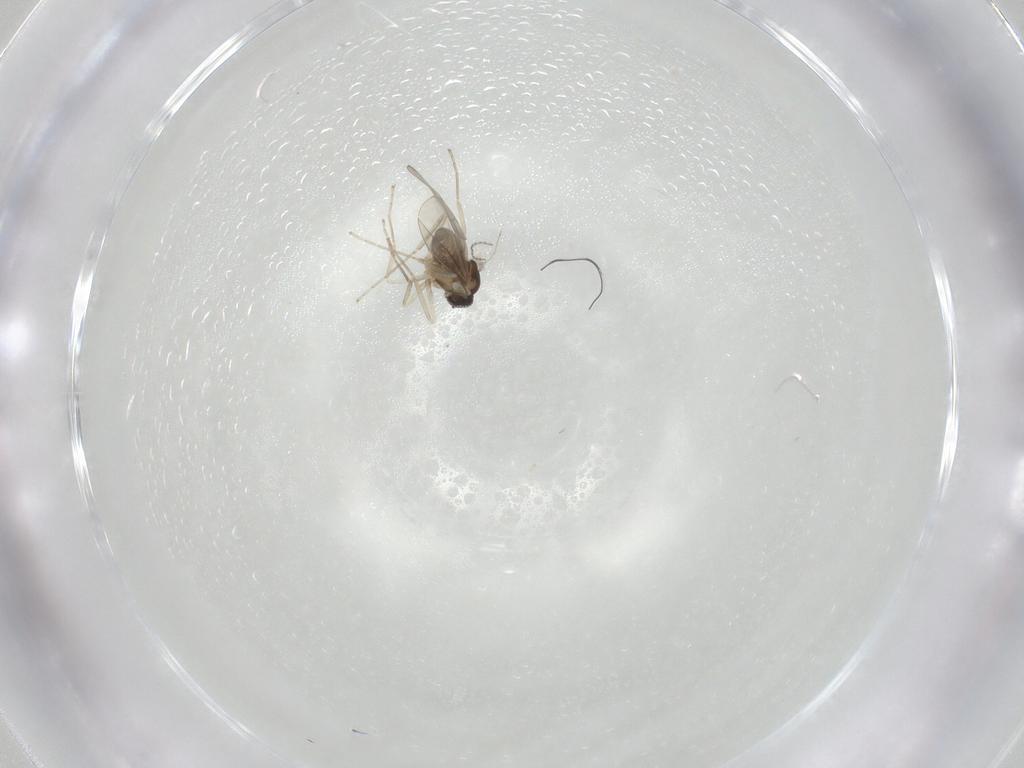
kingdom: Animalia
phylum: Arthropoda
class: Insecta
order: Diptera
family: Cecidomyiidae
